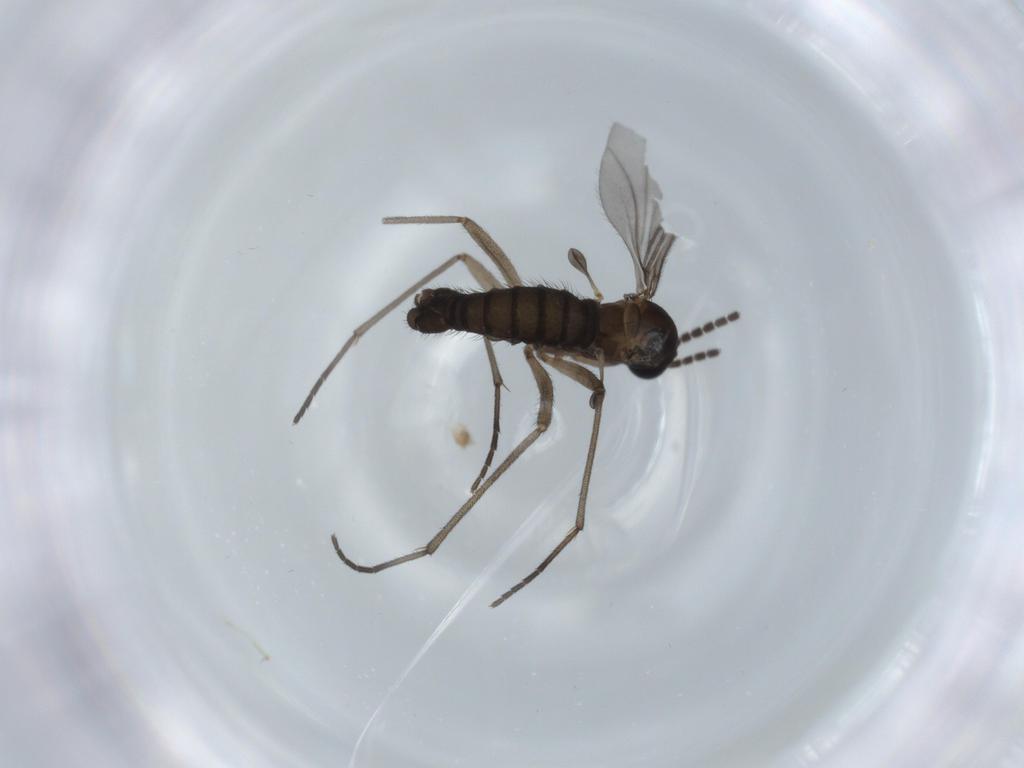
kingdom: Animalia
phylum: Arthropoda
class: Insecta
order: Diptera
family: Sciaridae
